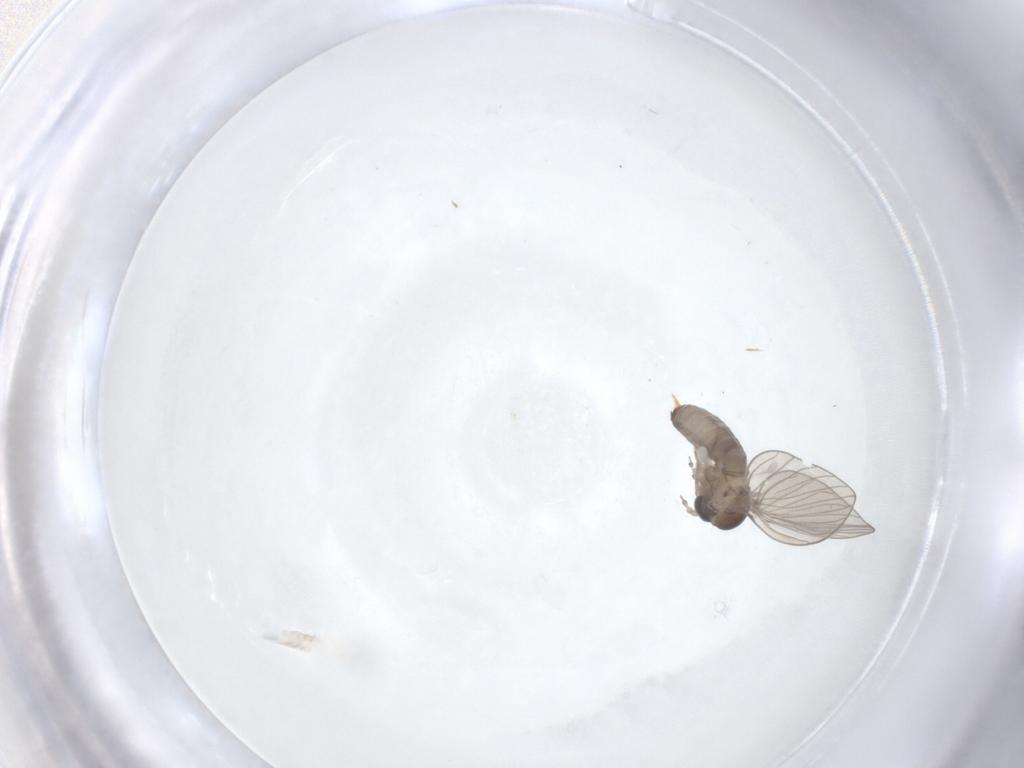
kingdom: Animalia
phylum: Arthropoda
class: Insecta
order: Diptera
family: Psychodidae
